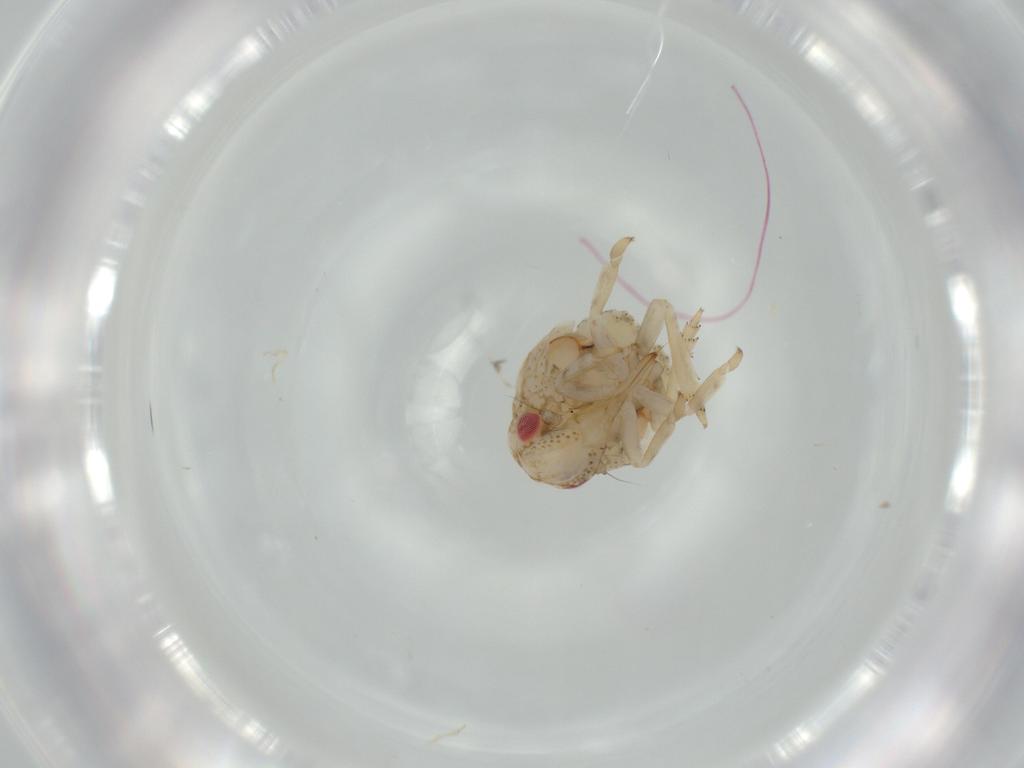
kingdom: Animalia
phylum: Arthropoda
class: Insecta
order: Hemiptera
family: Acanaloniidae
